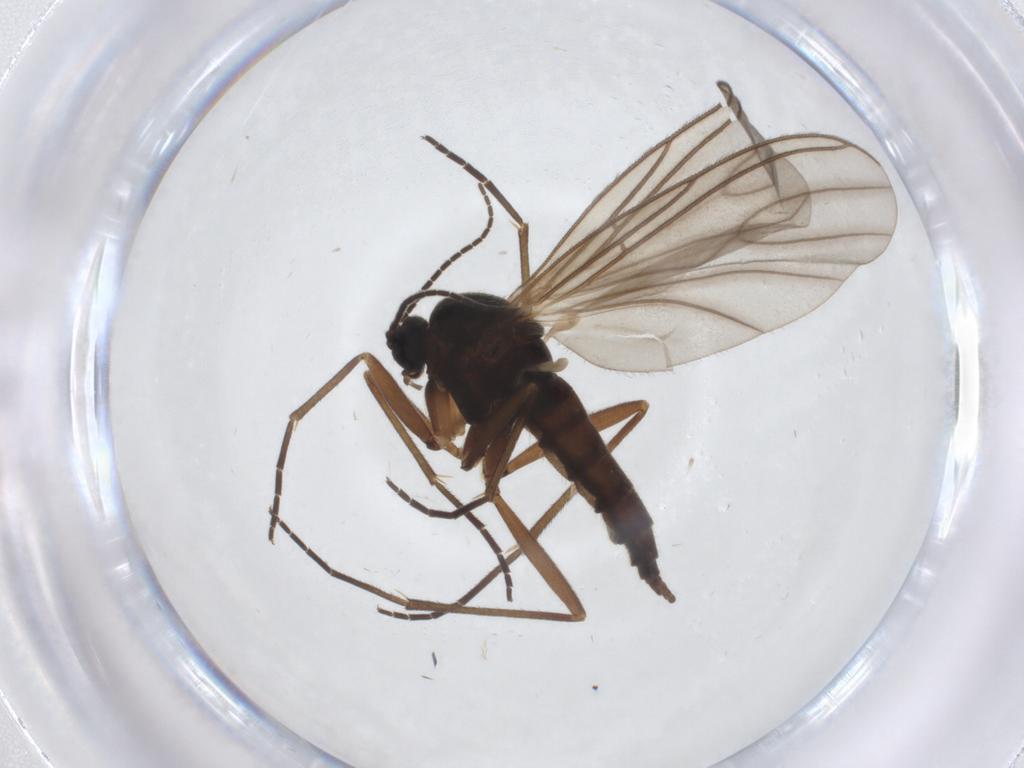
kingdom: Animalia
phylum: Arthropoda
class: Insecta
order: Diptera
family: Sciaridae
